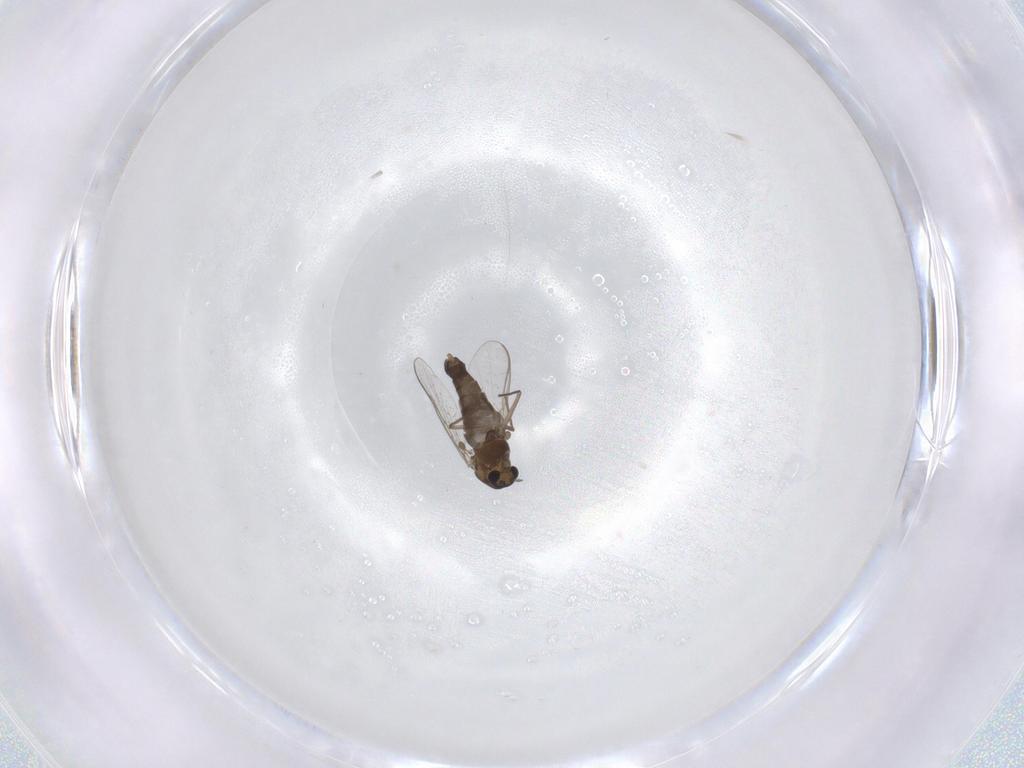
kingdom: Animalia
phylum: Arthropoda
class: Insecta
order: Diptera
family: Chironomidae
